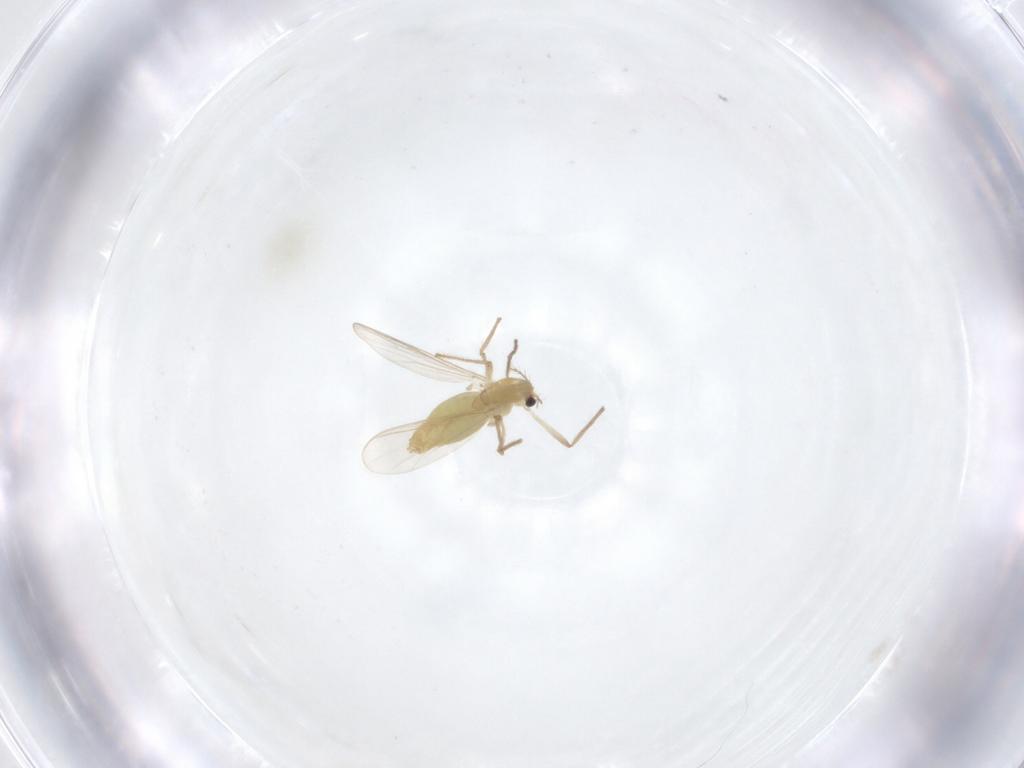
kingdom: Animalia
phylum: Arthropoda
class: Insecta
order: Diptera
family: Chironomidae
